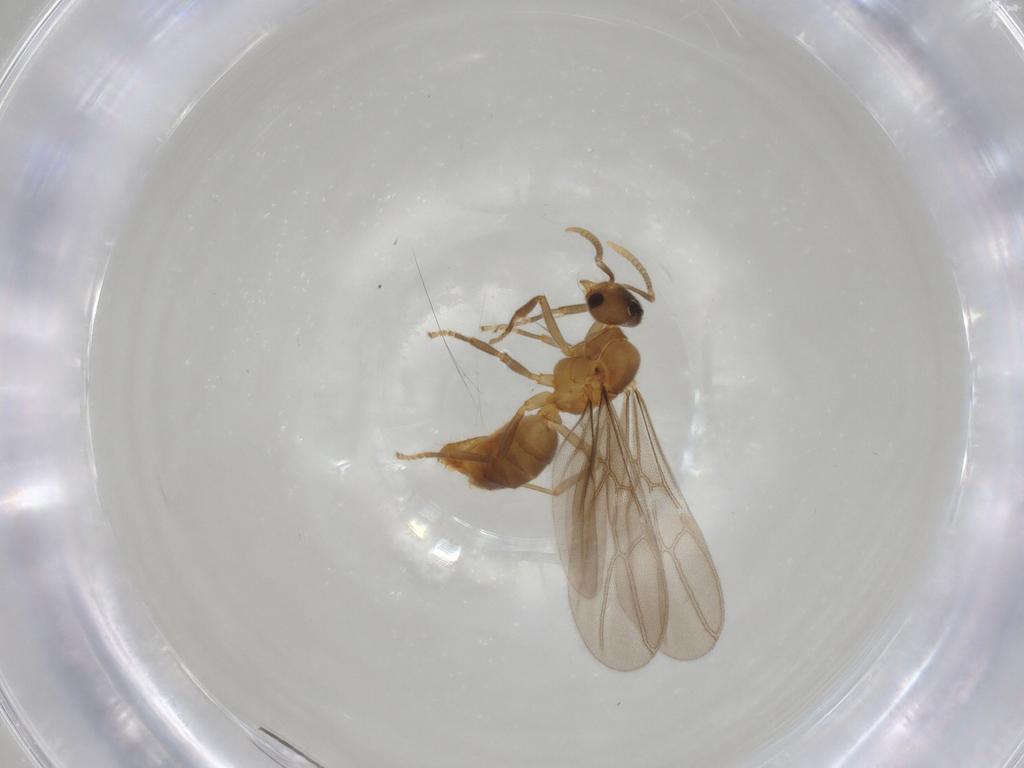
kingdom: Animalia
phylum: Arthropoda
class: Insecta
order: Hymenoptera
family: Formicidae
